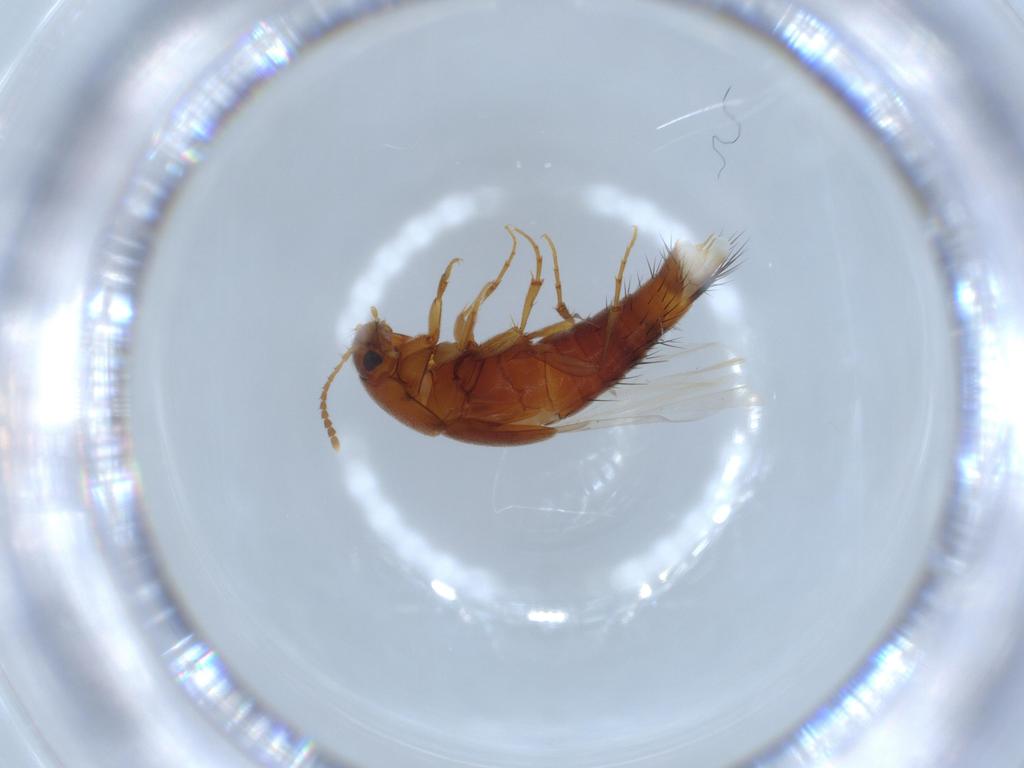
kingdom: Animalia
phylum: Arthropoda
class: Insecta
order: Coleoptera
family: Staphylinidae
